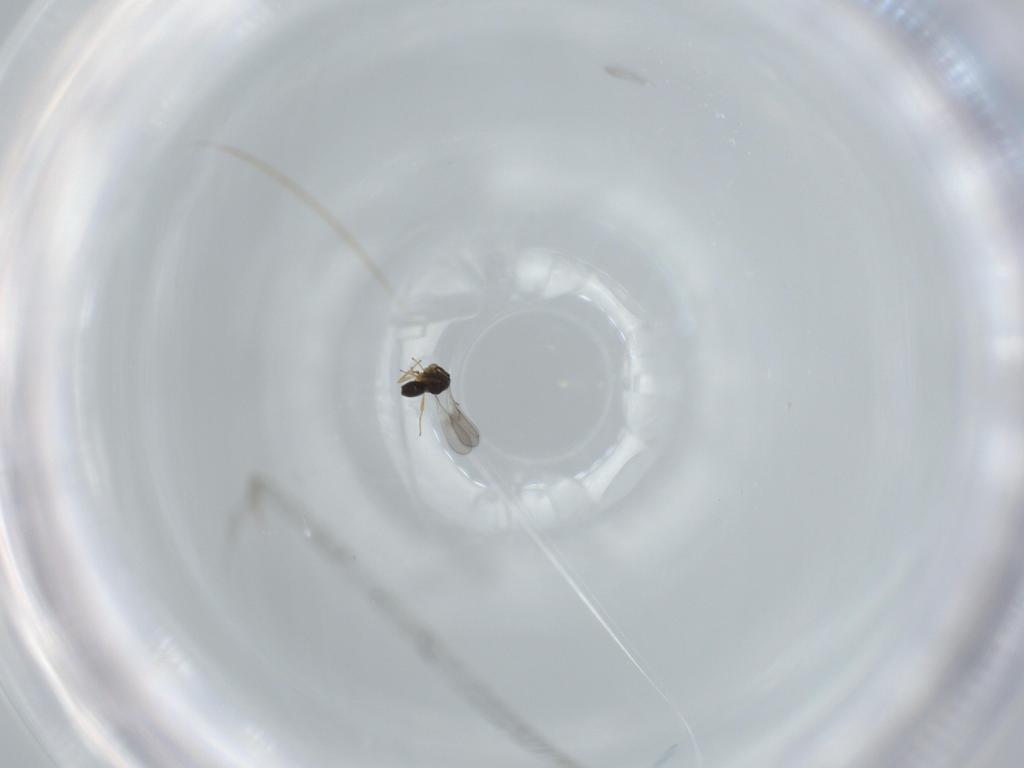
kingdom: Animalia
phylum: Arthropoda
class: Insecta
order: Hymenoptera
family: Scelionidae
